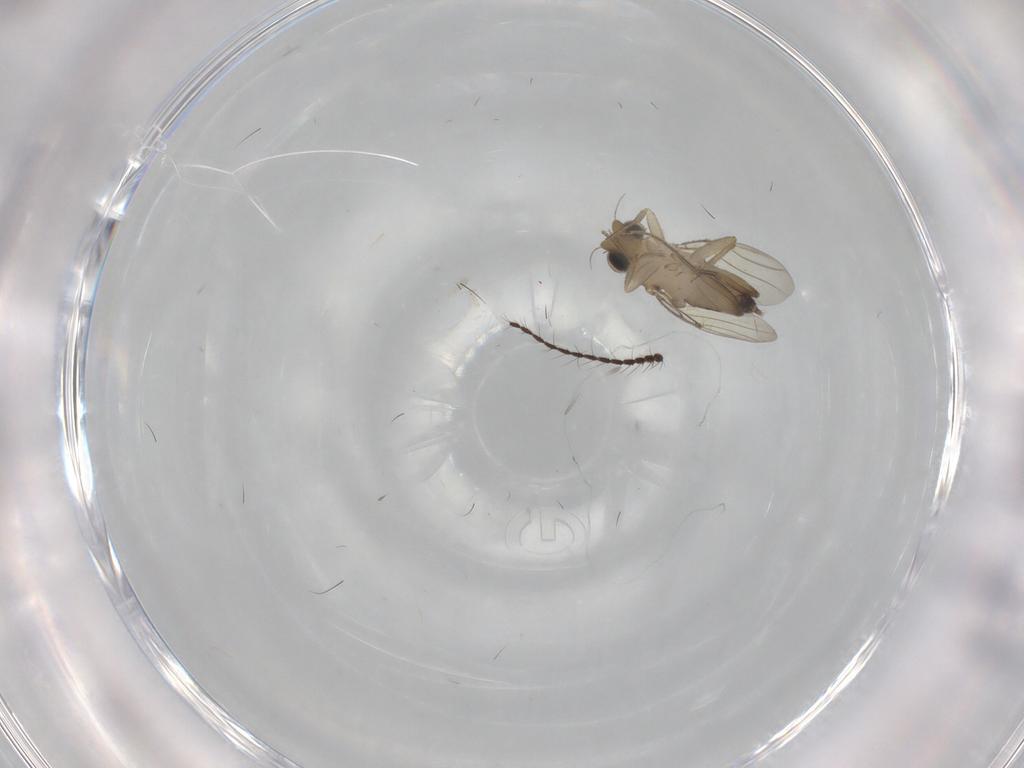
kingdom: Animalia
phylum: Arthropoda
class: Insecta
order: Diptera
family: Phoridae
